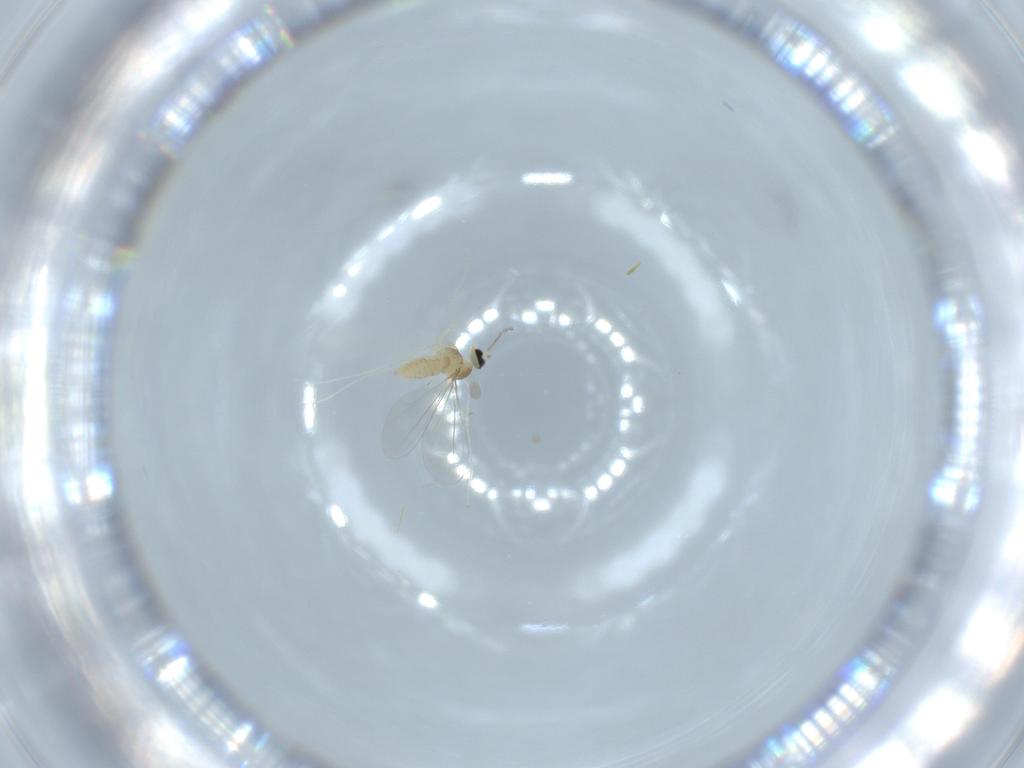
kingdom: Animalia
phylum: Arthropoda
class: Insecta
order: Diptera
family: Cecidomyiidae
